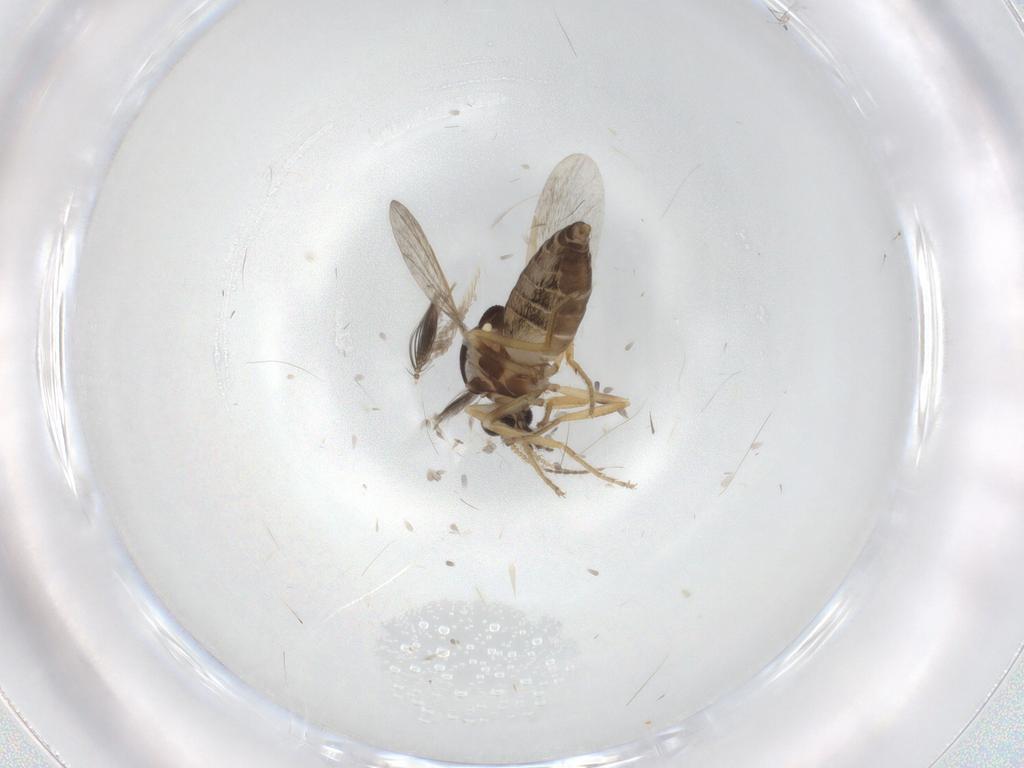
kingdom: Animalia
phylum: Arthropoda
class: Insecta
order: Diptera
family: Ceratopogonidae
